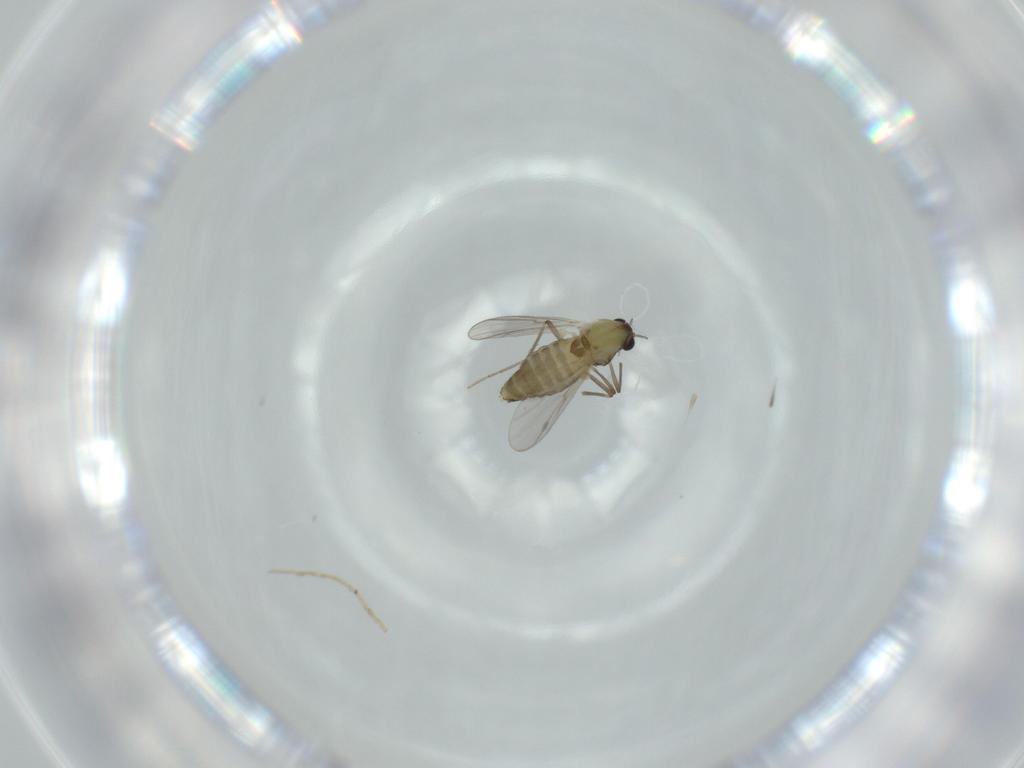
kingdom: Animalia
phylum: Arthropoda
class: Insecta
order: Diptera
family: Chironomidae
